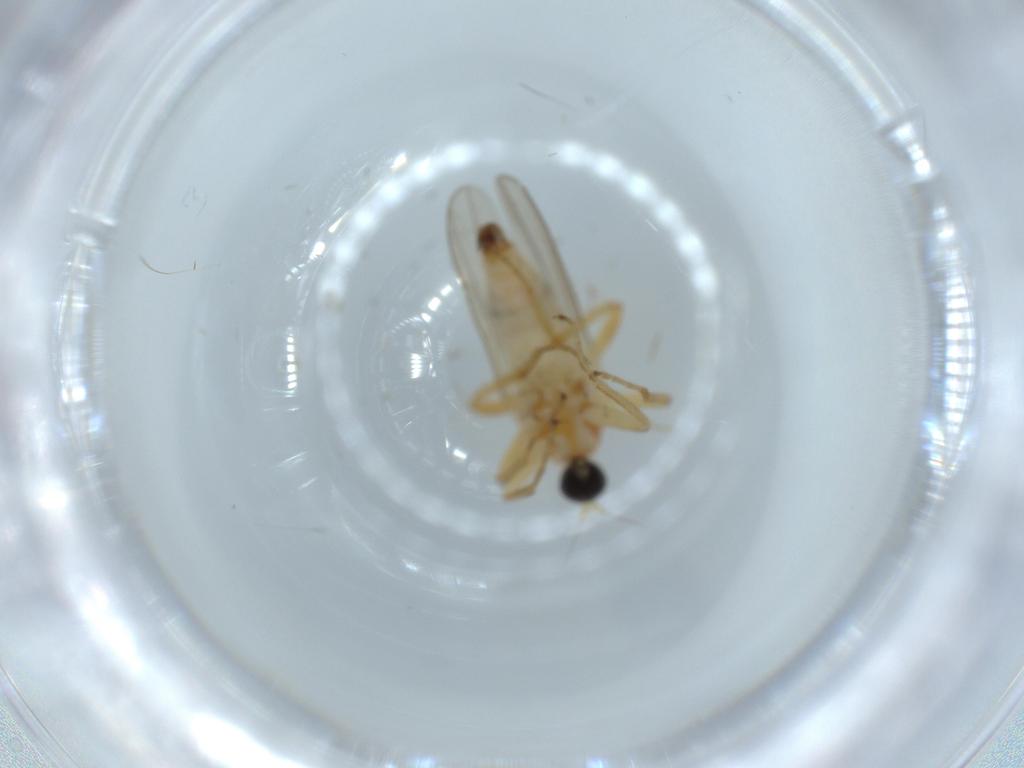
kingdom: Animalia
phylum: Arthropoda
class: Insecta
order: Diptera
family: Hybotidae
